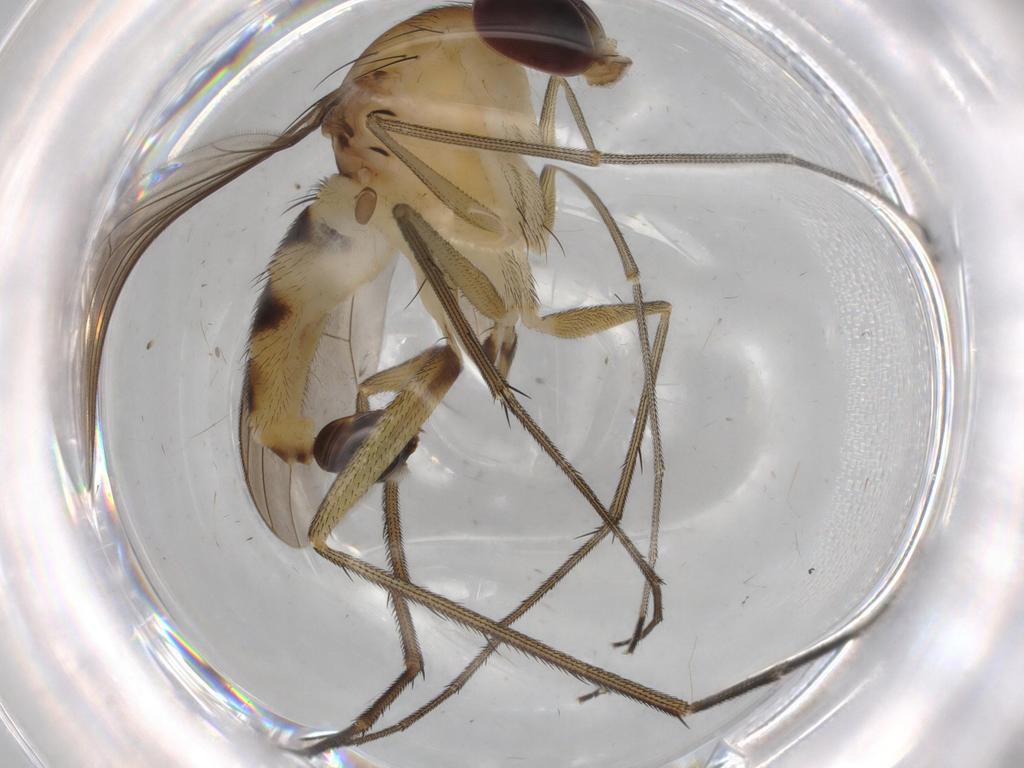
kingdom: Animalia
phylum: Arthropoda
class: Insecta
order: Diptera
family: Dolichopodidae
